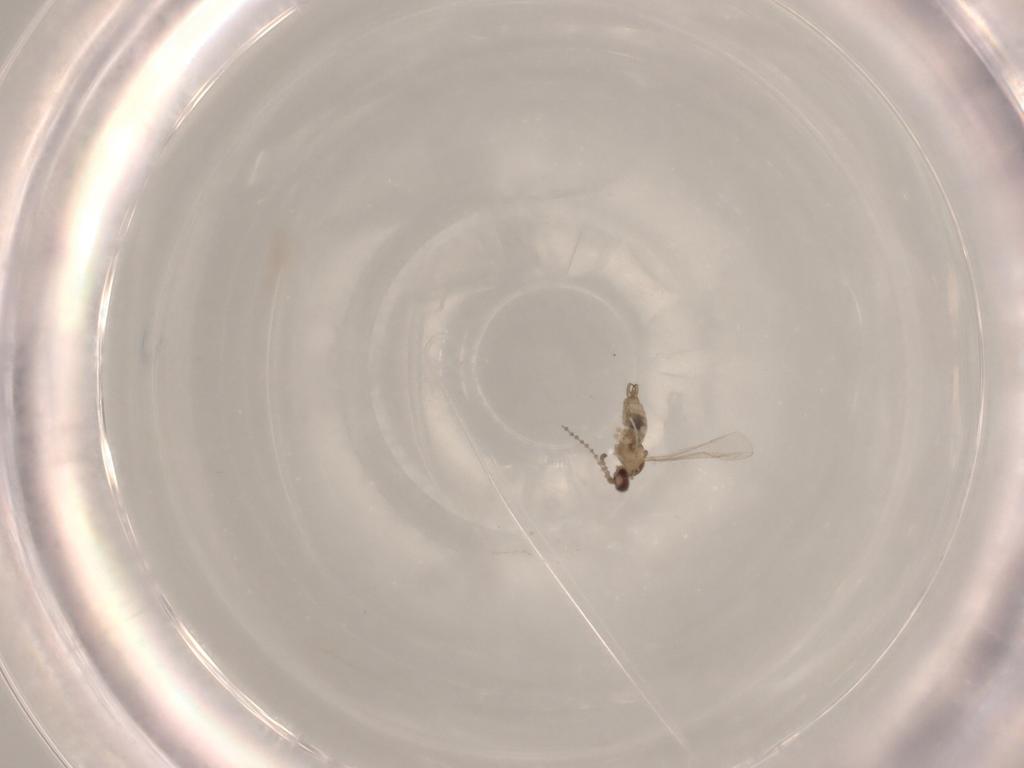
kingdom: Animalia
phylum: Arthropoda
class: Insecta
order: Diptera
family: Cecidomyiidae
